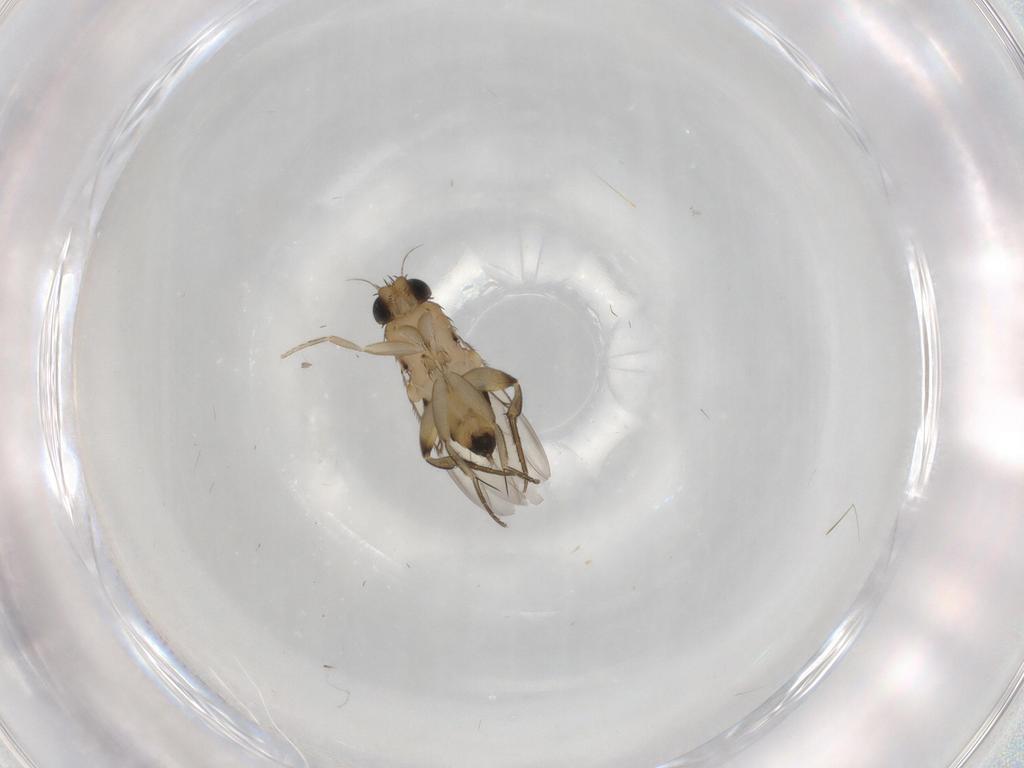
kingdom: Animalia
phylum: Arthropoda
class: Insecta
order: Diptera
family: Phoridae
